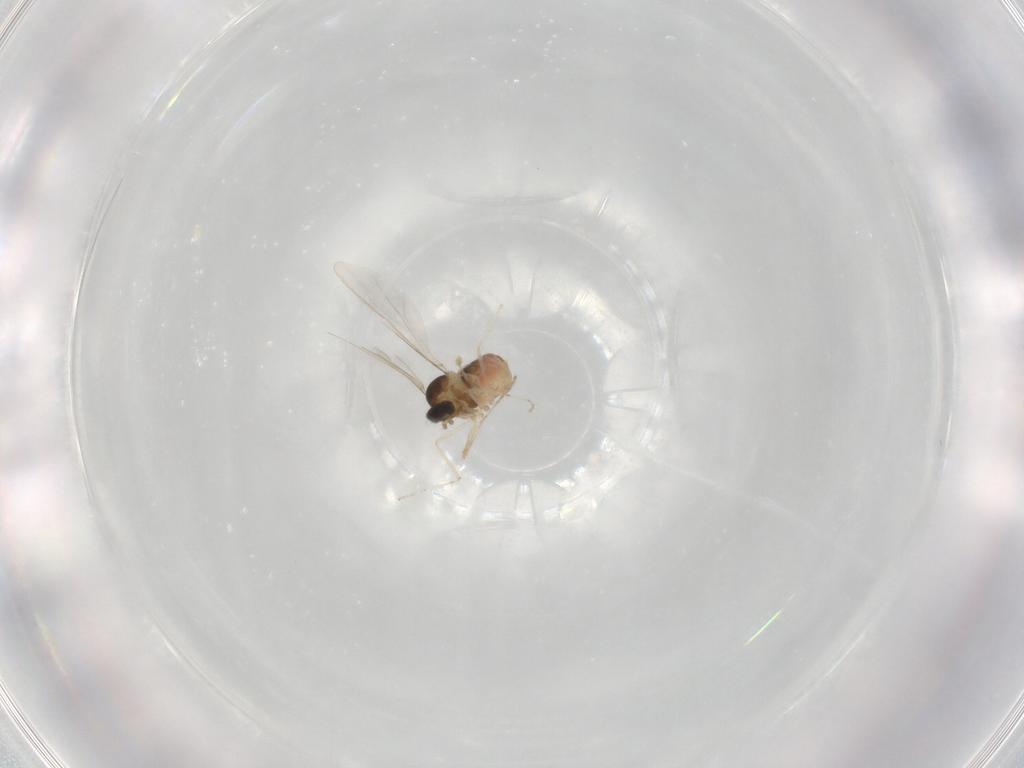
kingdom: Animalia
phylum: Arthropoda
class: Insecta
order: Diptera
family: Cecidomyiidae
